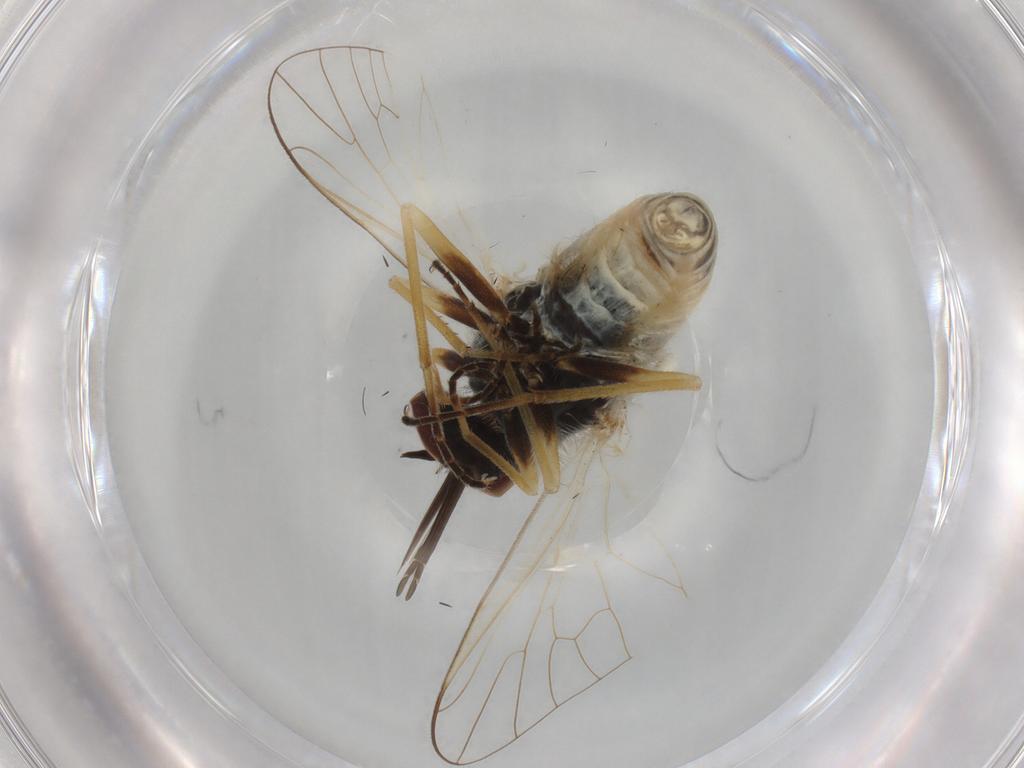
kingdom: Animalia
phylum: Arthropoda
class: Insecta
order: Diptera
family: Bombyliidae
